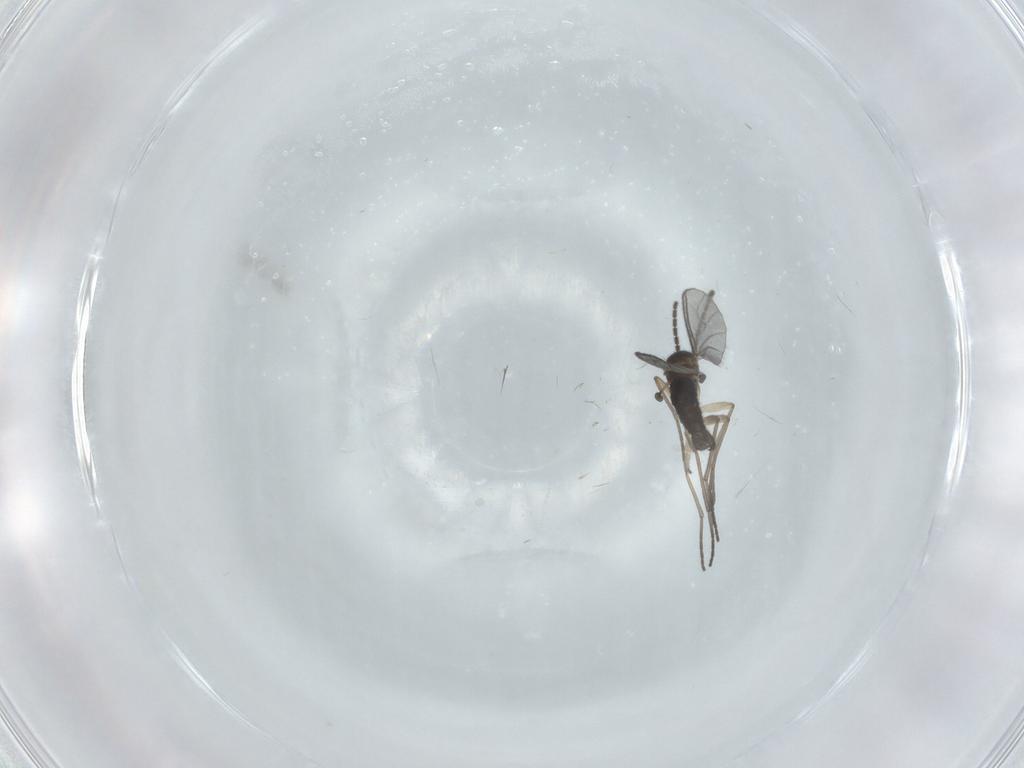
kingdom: Animalia
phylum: Arthropoda
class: Insecta
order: Diptera
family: Sciaridae
